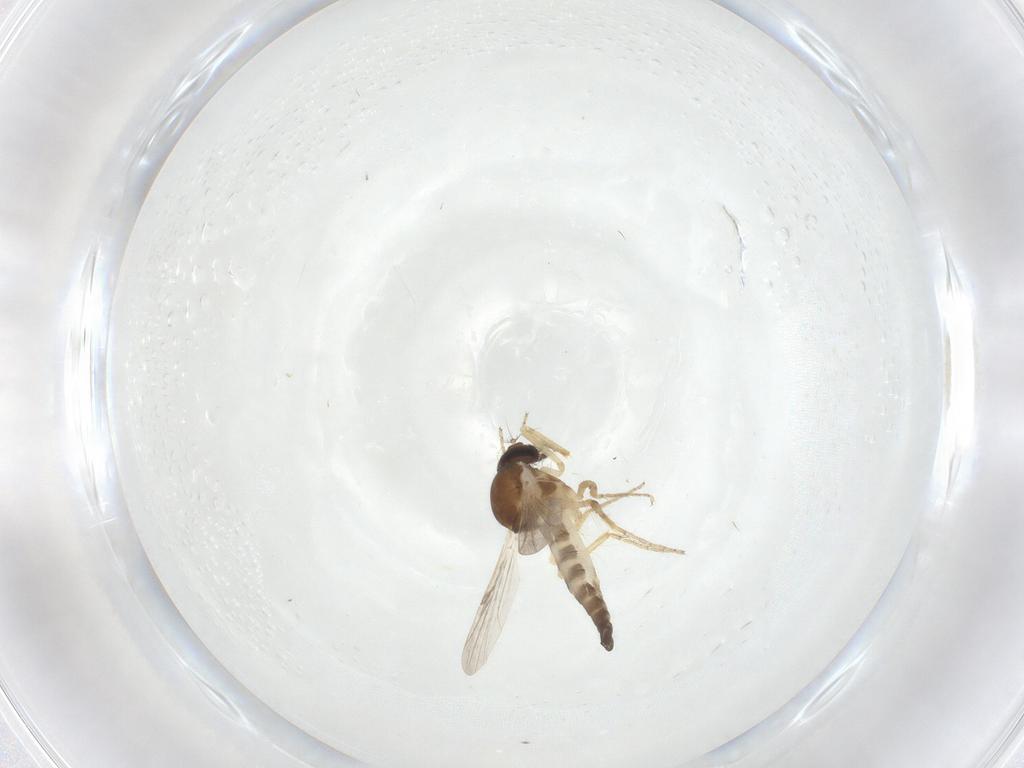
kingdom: Animalia
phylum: Arthropoda
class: Insecta
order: Diptera
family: Ceratopogonidae
